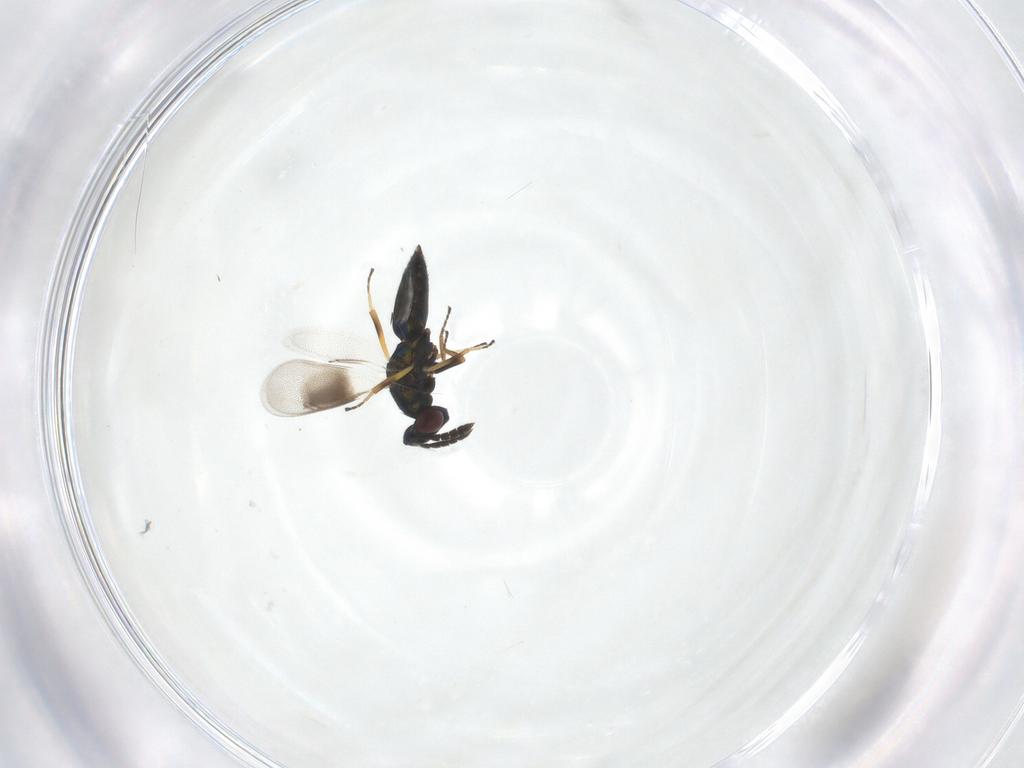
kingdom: Animalia
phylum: Arthropoda
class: Insecta
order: Hymenoptera
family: Eulophidae
